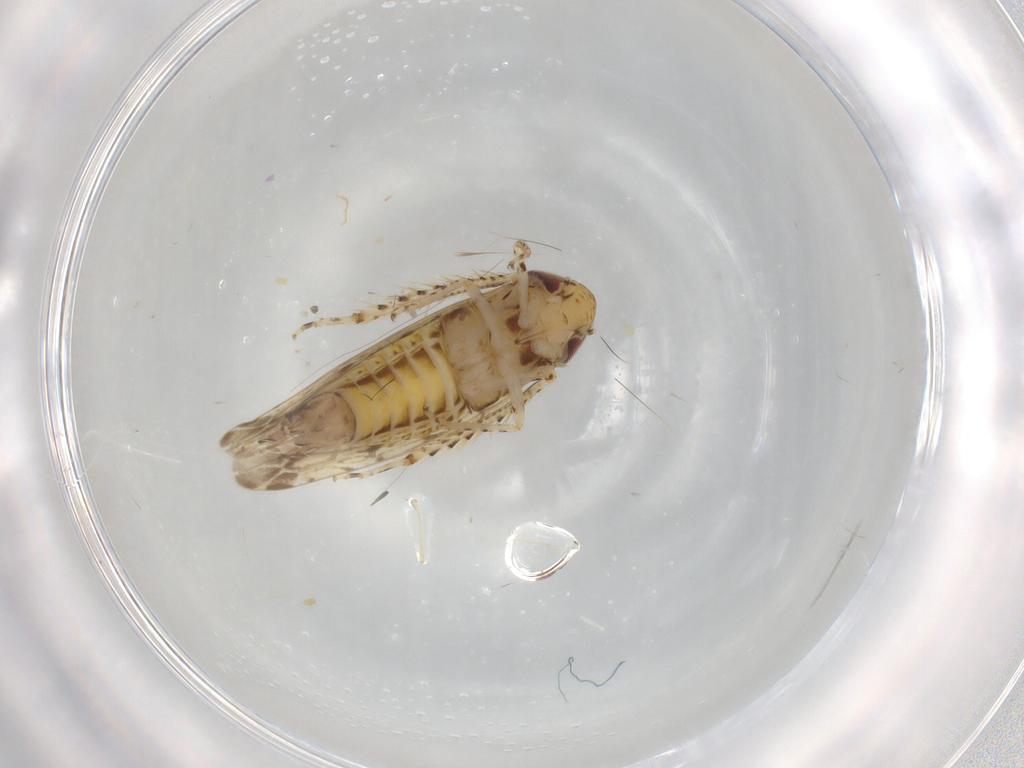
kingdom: Animalia
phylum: Arthropoda
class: Insecta
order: Hemiptera
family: Cicadellidae
